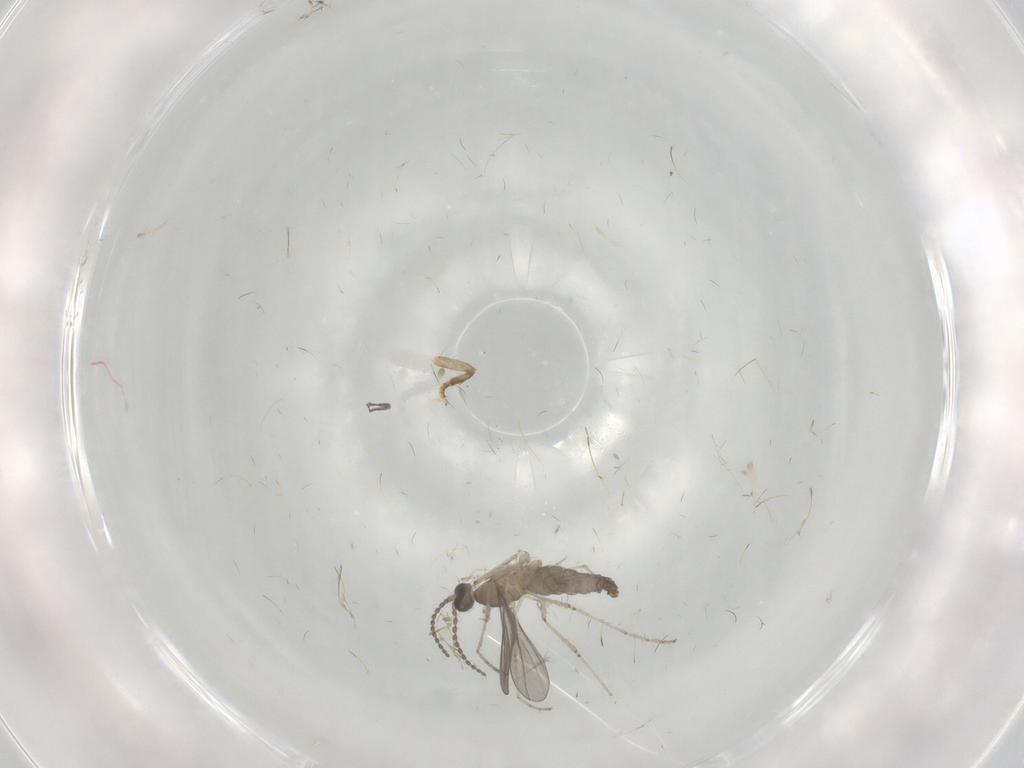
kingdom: Animalia
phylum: Arthropoda
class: Insecta
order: Diptera
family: Cecidomyiidae
